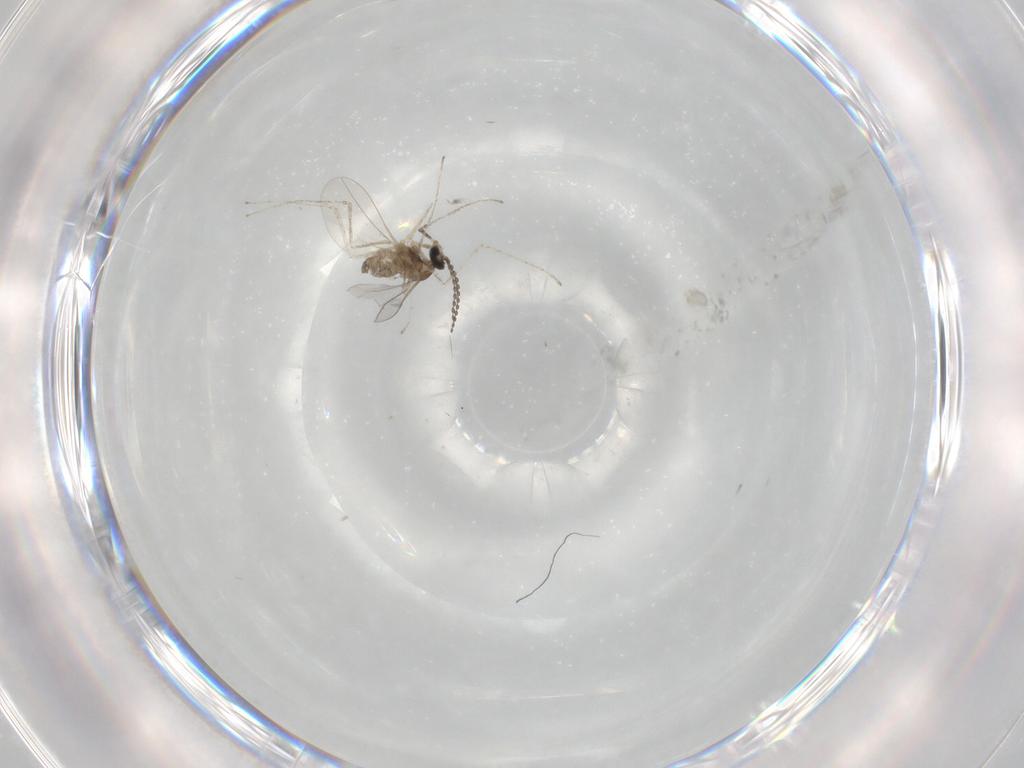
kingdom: Animalia
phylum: Arthropoda
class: Insecta
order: Diptera
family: Cecidomyiidae
